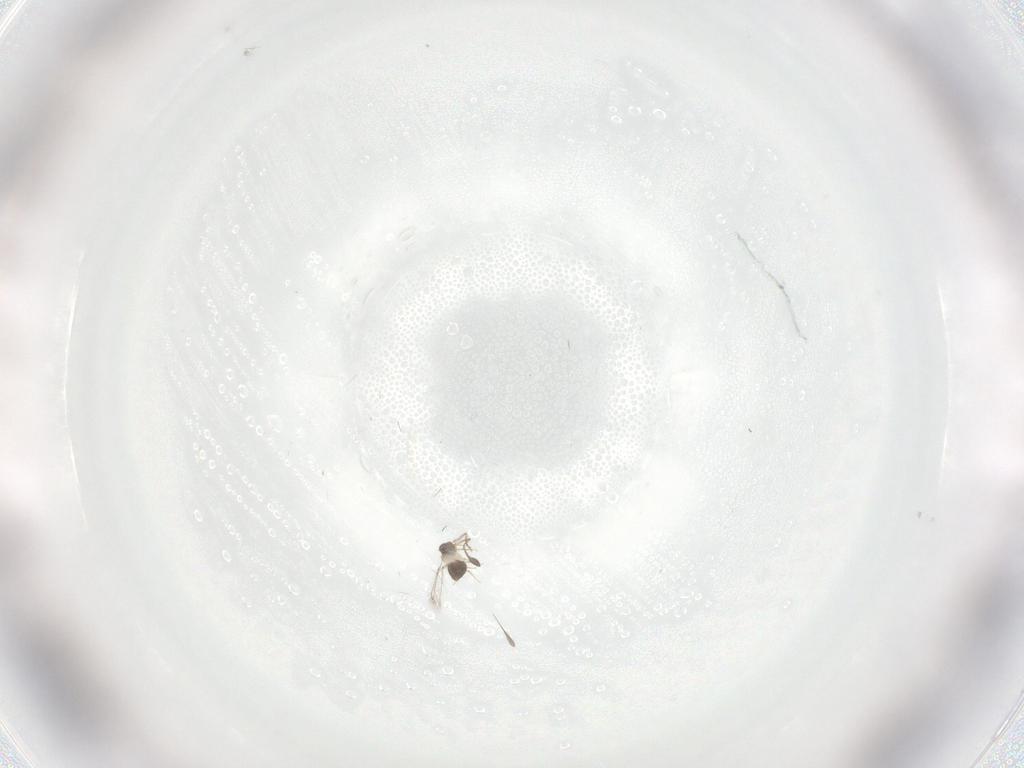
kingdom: Animalia
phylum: Arthropoda
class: Insecta
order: Hymenoptera
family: Mymaridae
